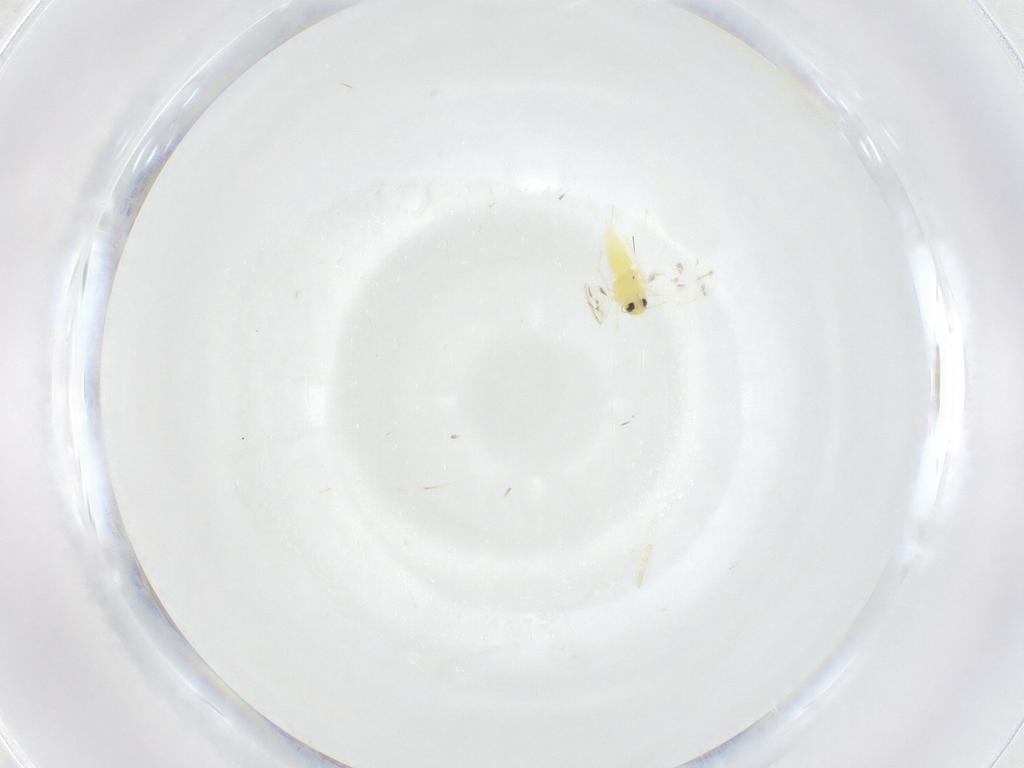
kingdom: Animalia
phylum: Arthropoda
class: Insecta
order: Hemiptera
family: Aleyrodidae
